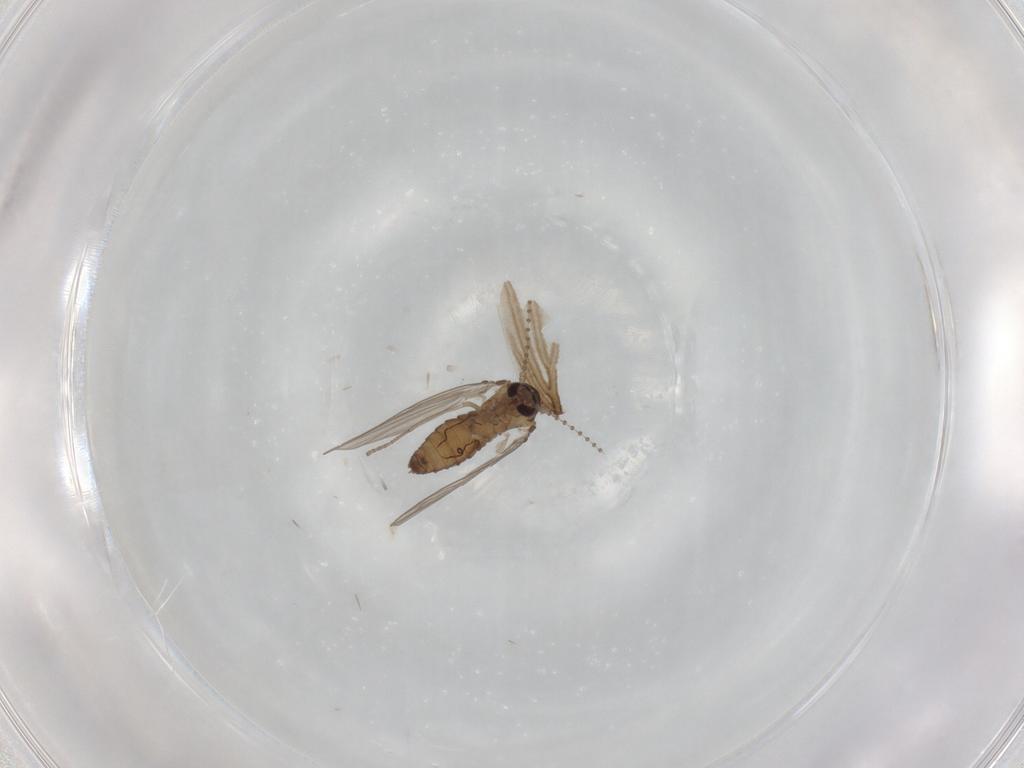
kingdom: Animalia
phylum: Arthropoda
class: Insecta
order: Diptera
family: Psychodidae
